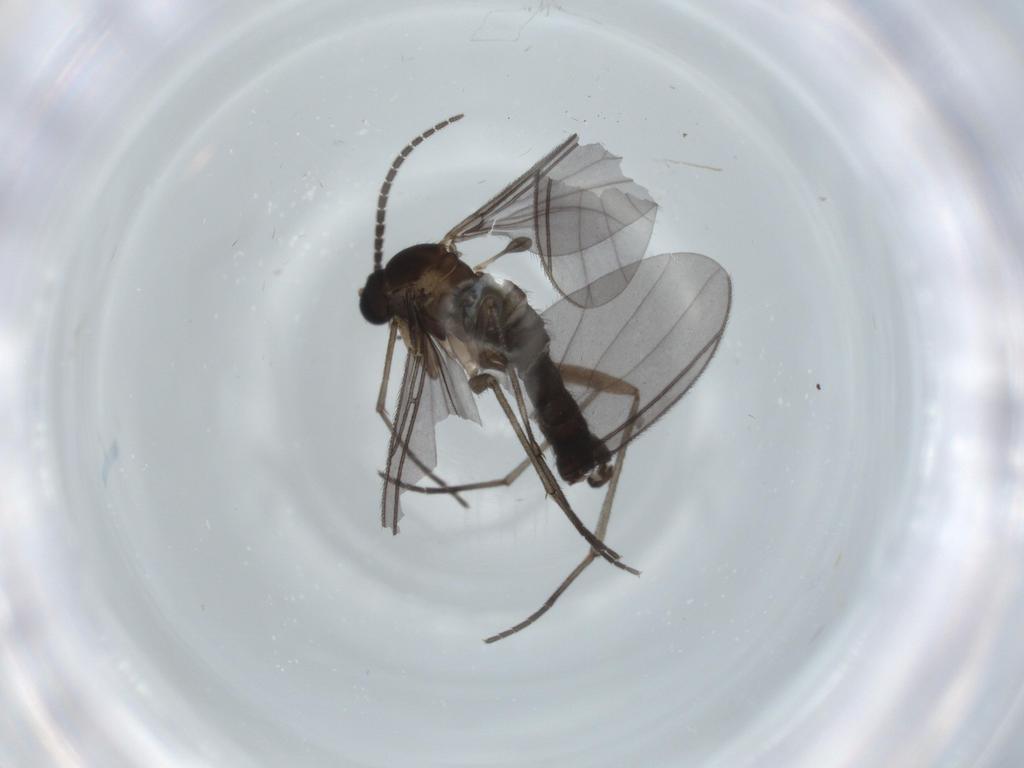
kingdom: Animalia
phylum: Arthropoda
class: Insecta
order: Diptera
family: Sciaridae
